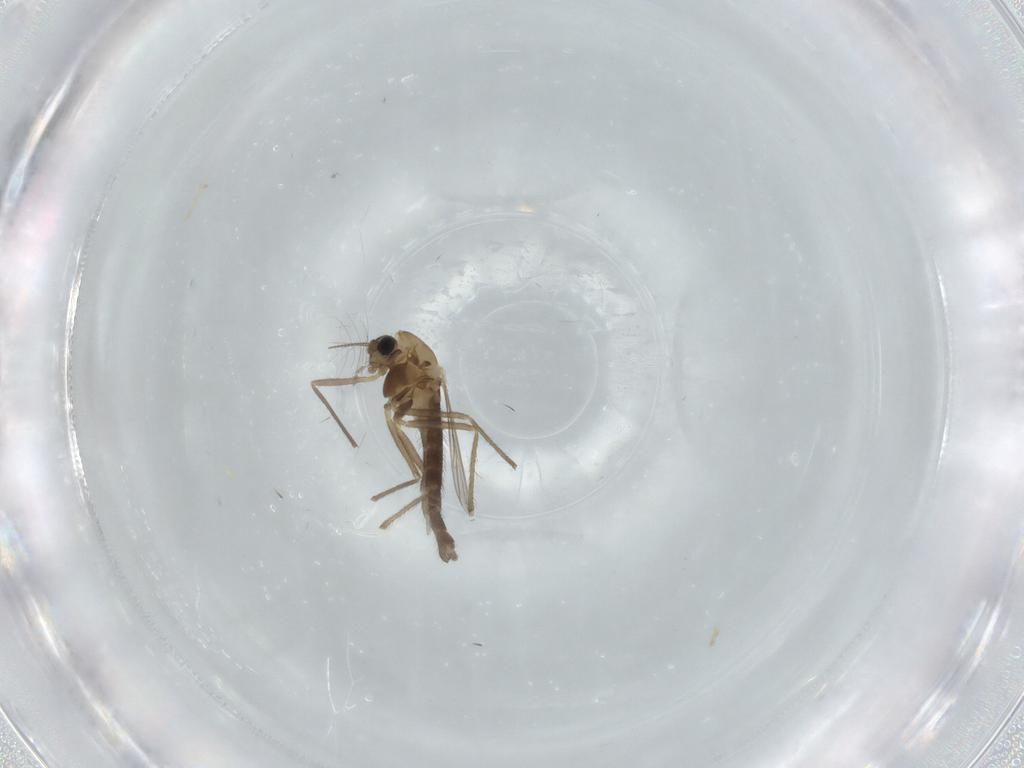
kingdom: Animalia
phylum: Arthropoda
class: Insecta
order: Diptera
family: Chironomidae
